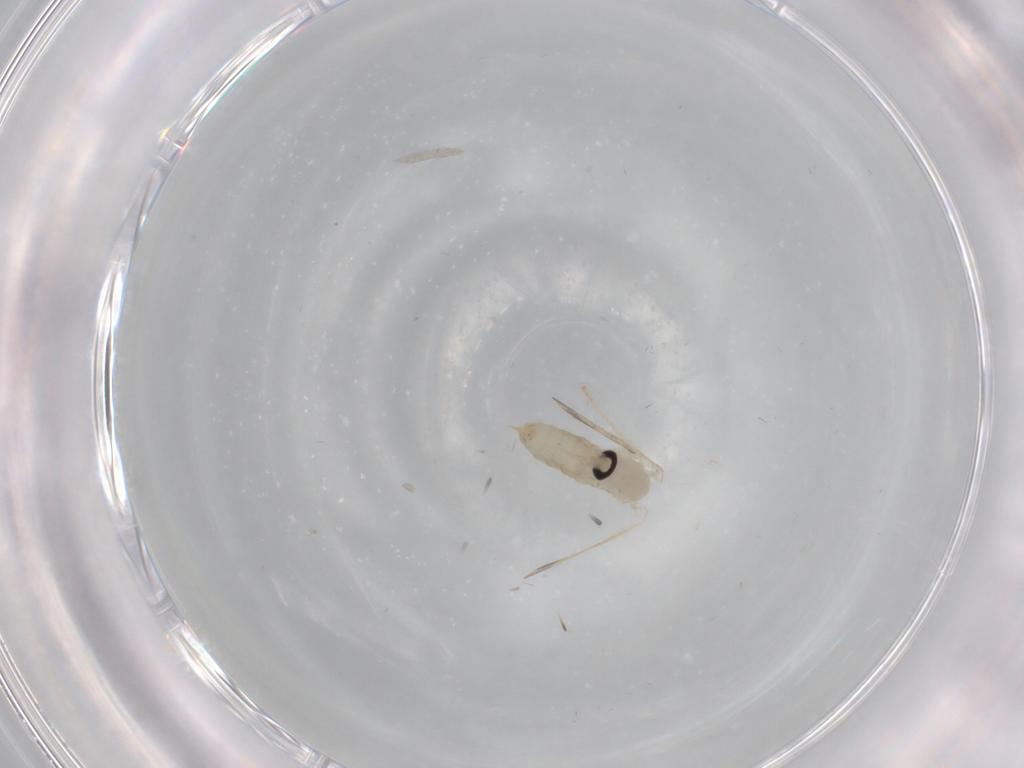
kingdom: Animalia
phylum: Arthropoda
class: Insecta
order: Diptera
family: Psychodidae
